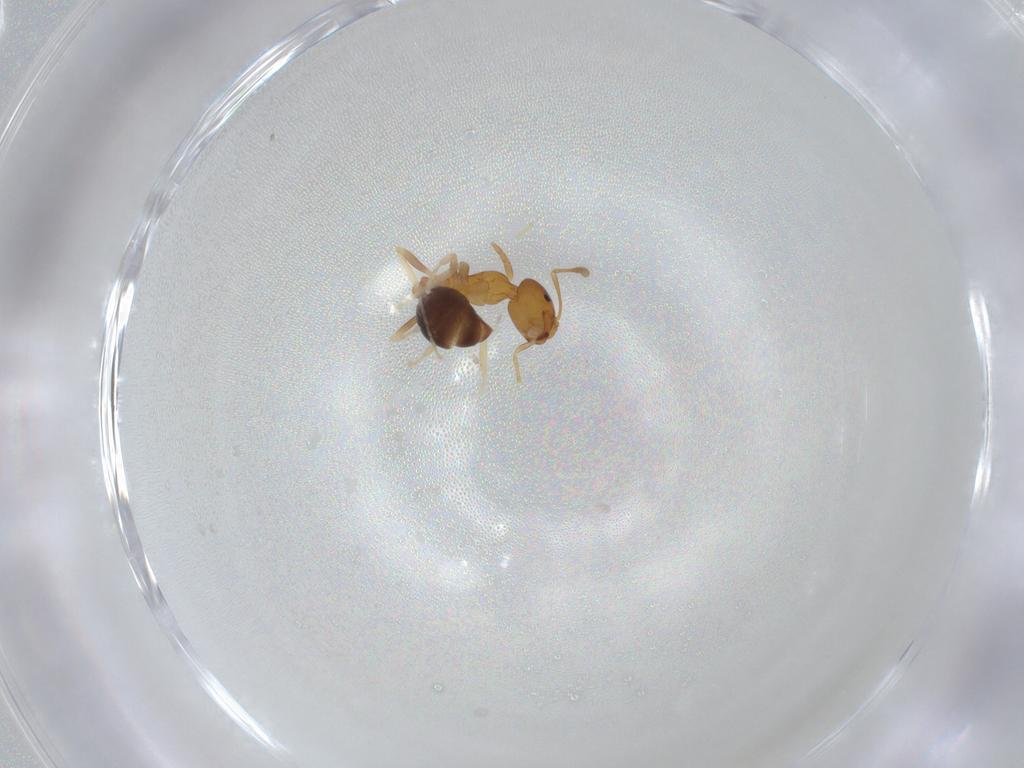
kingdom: Animalia
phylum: Arthropoda
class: Insecta
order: Hymenoptera
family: Formicidae
